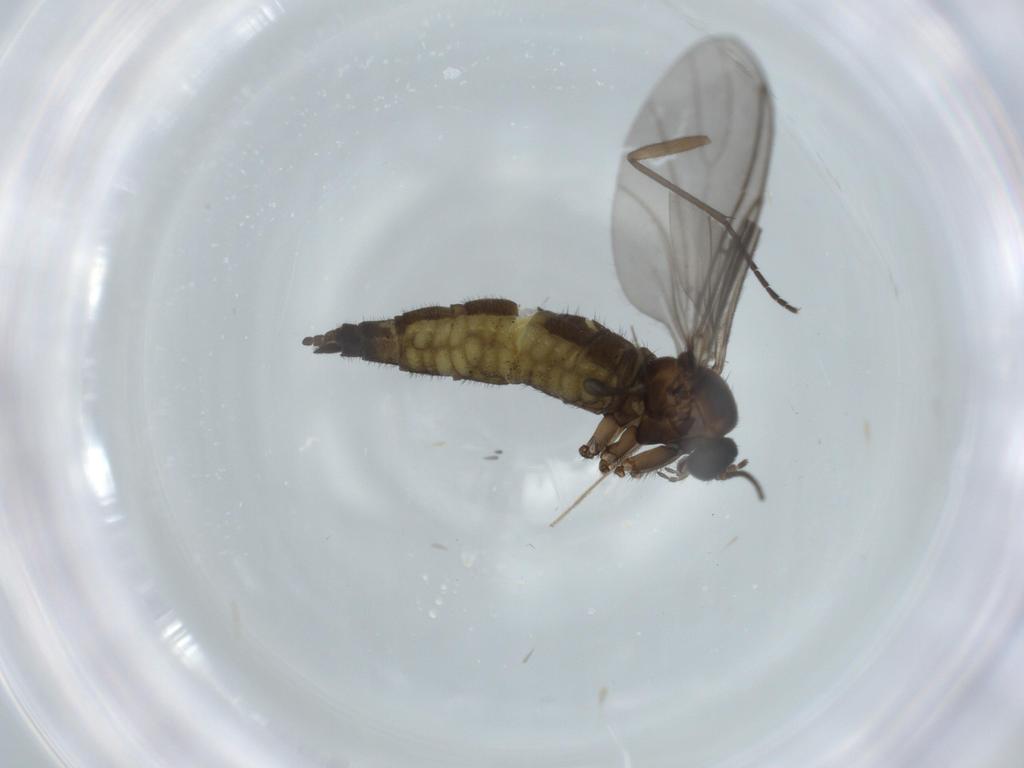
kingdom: Animalia
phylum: Arthropoda
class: Insecta
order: Diptera
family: Sciaridae
